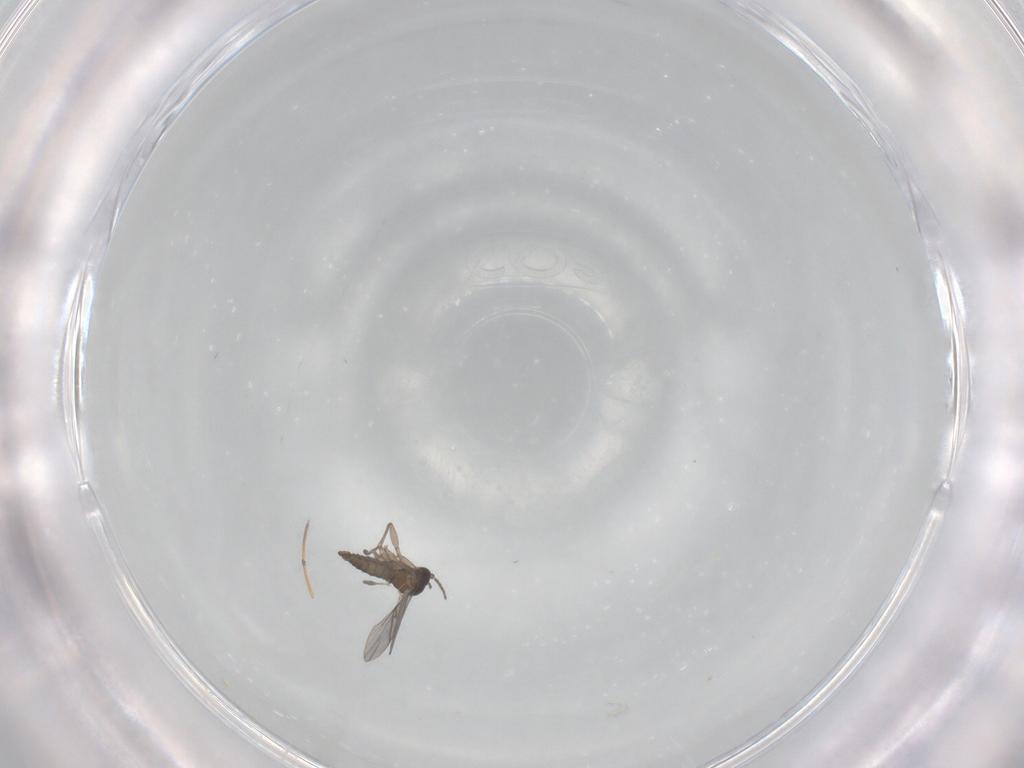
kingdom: Animalia
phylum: Arthropoda
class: Insecta
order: Diptera
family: Sciaridae
